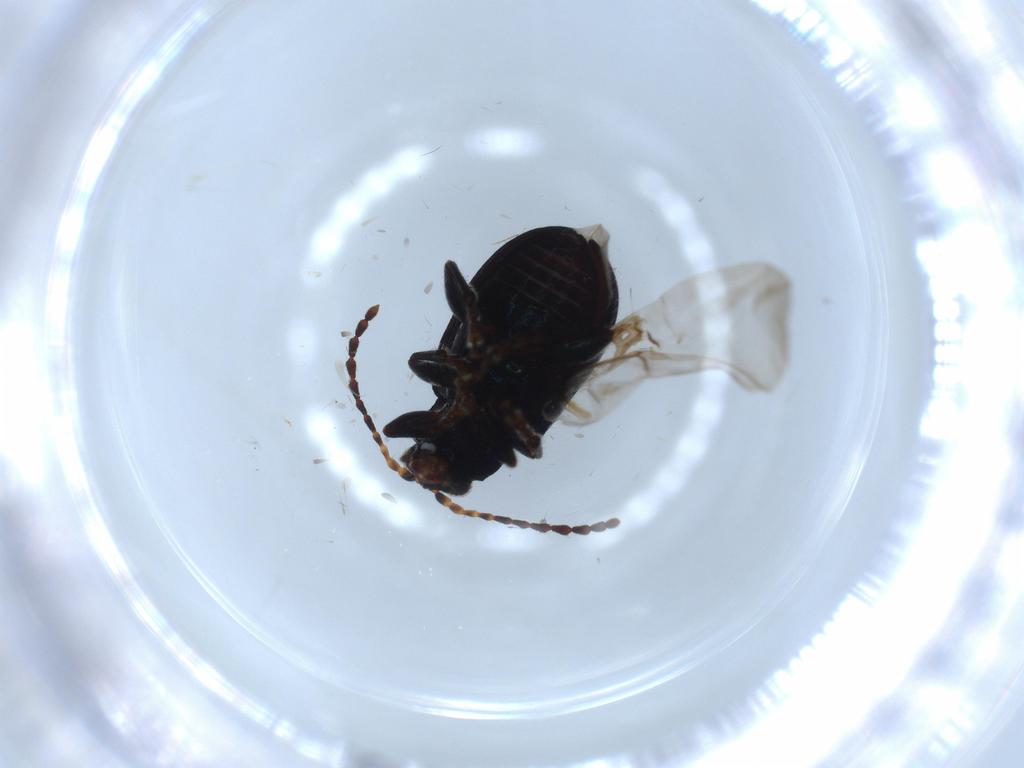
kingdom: Animalia
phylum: Arthropoda
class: Insecta
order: Coleoptera
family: Chrysomelidae
